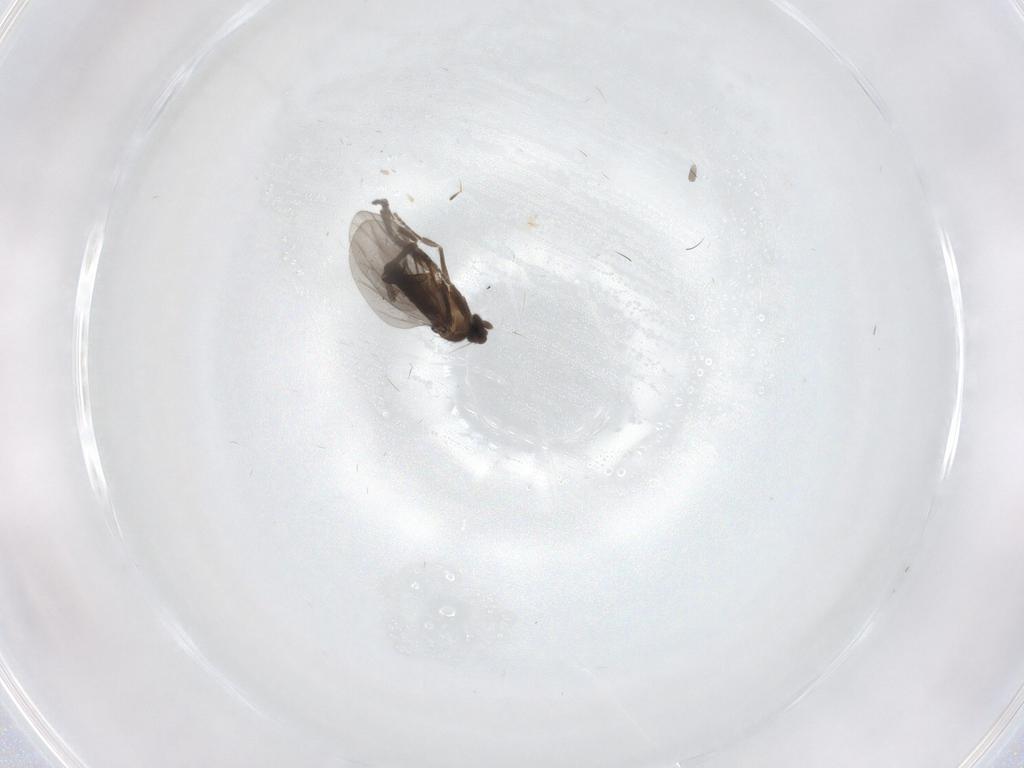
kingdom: Animalia
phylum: Arthropoda
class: Insecta
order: Diptera
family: Phoridae
